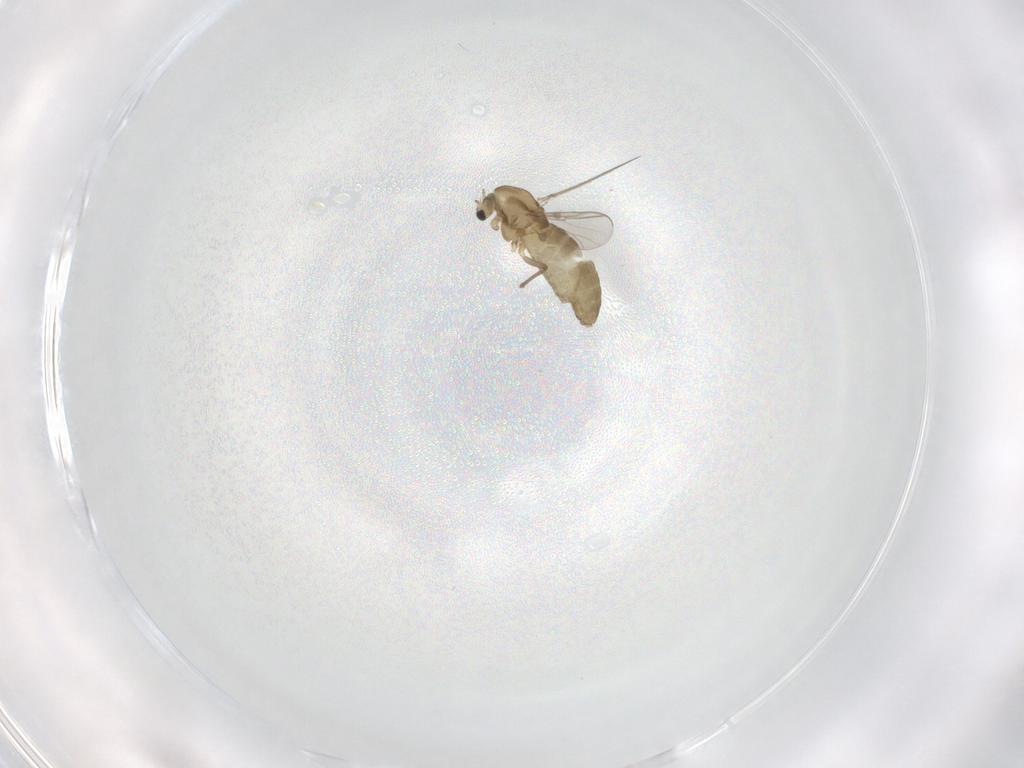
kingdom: Animalia
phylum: Arthropoda
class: Insecta
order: Diptera
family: Chironomidae
